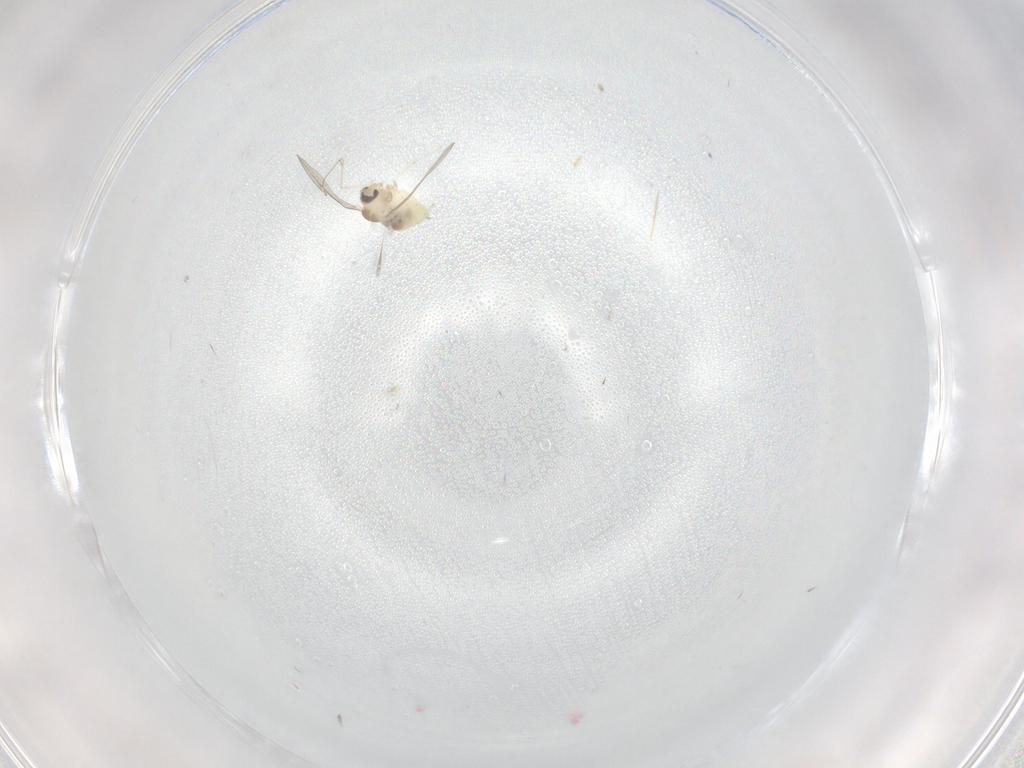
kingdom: Animalia
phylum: Arthropoda
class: Insecta
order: Diptera
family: Cecidomyiidae
